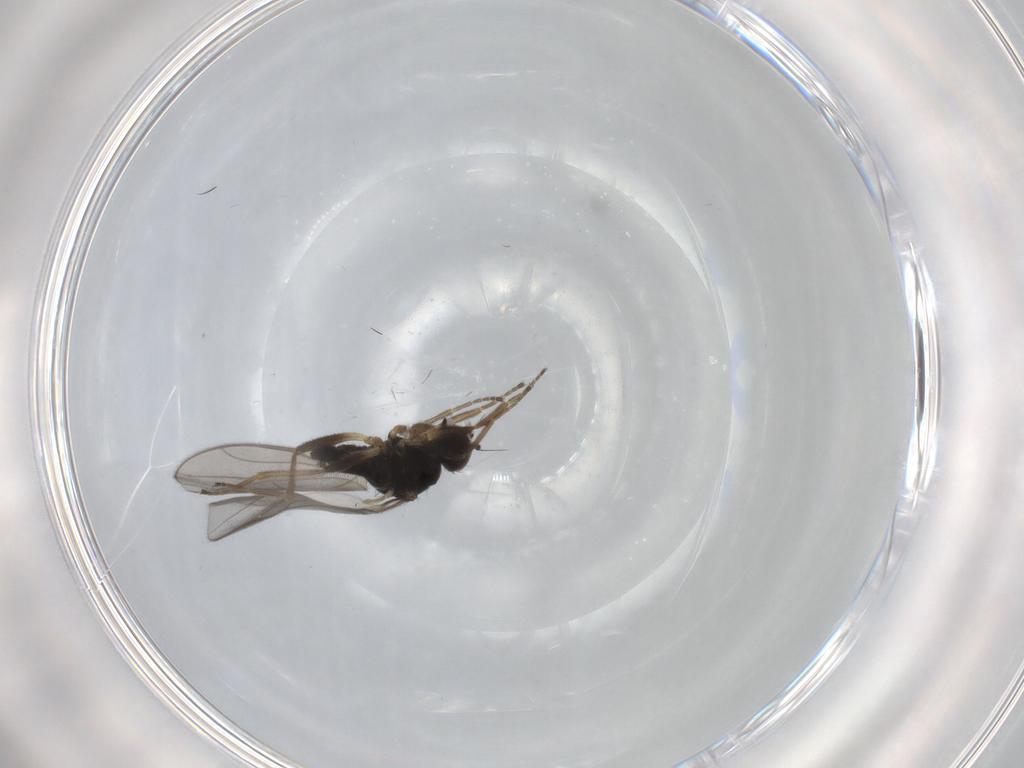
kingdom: Animalia
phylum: Arthropoda
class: Insecta
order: Diptera
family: Hybotidae
